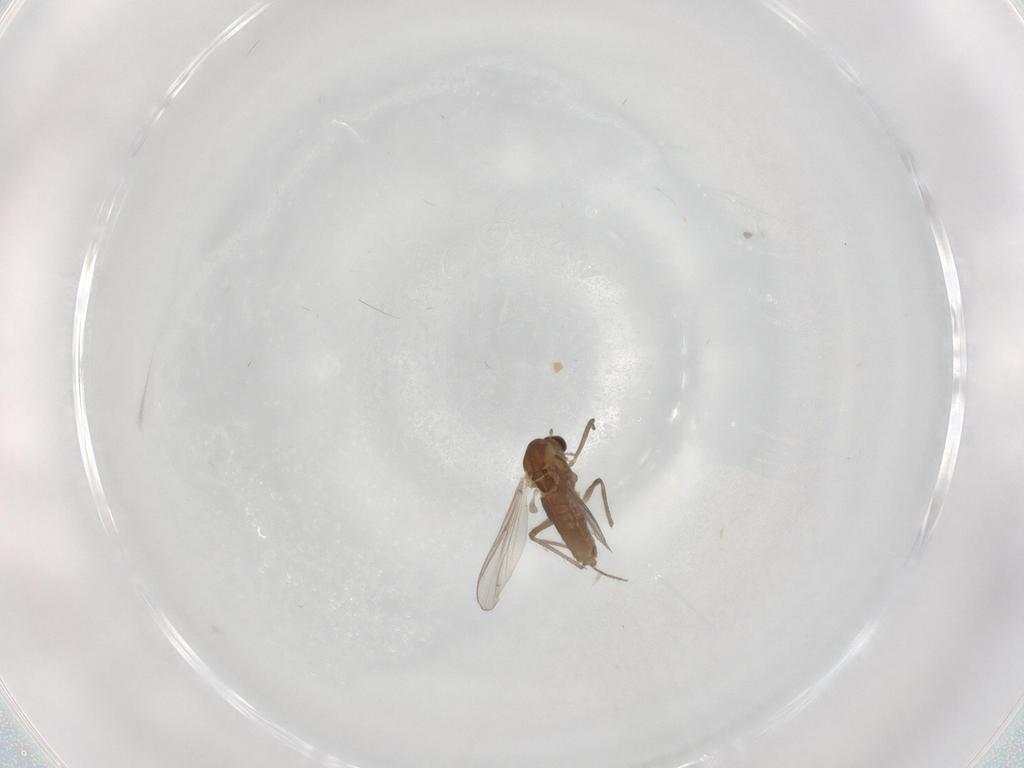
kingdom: Animalia
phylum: Arthropoda
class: Insecta
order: Diptera
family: Chironomidae
